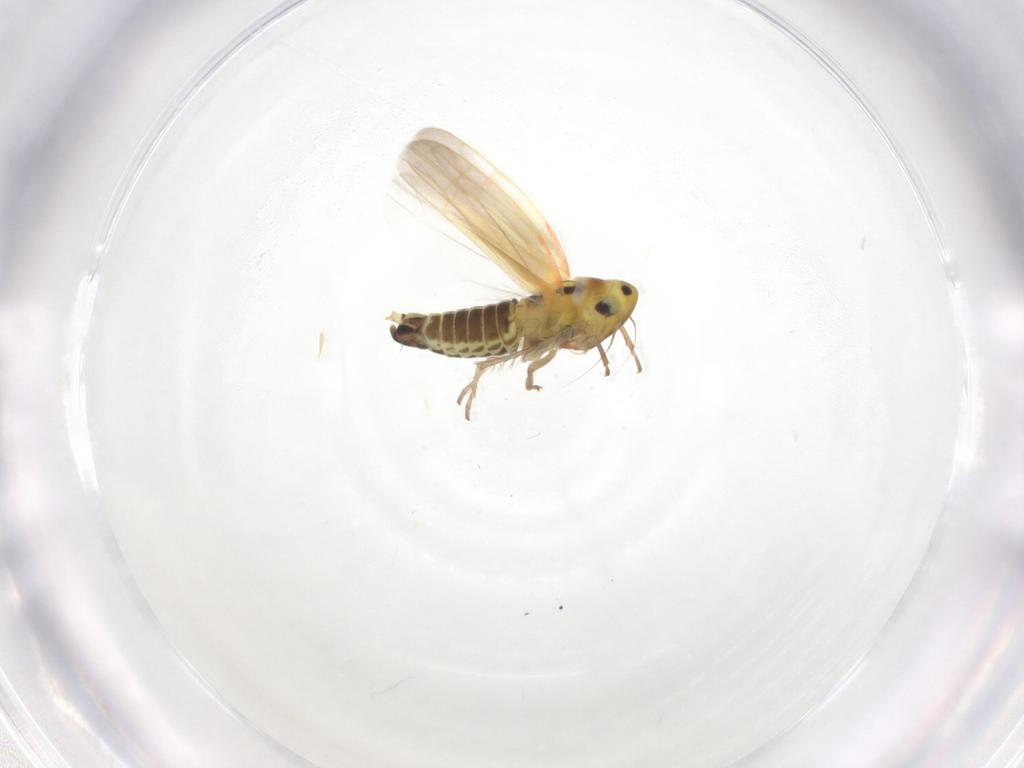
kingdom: Animalia
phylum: Arthropoda
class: Insecta
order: Hemiptera
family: Cicadellidae
